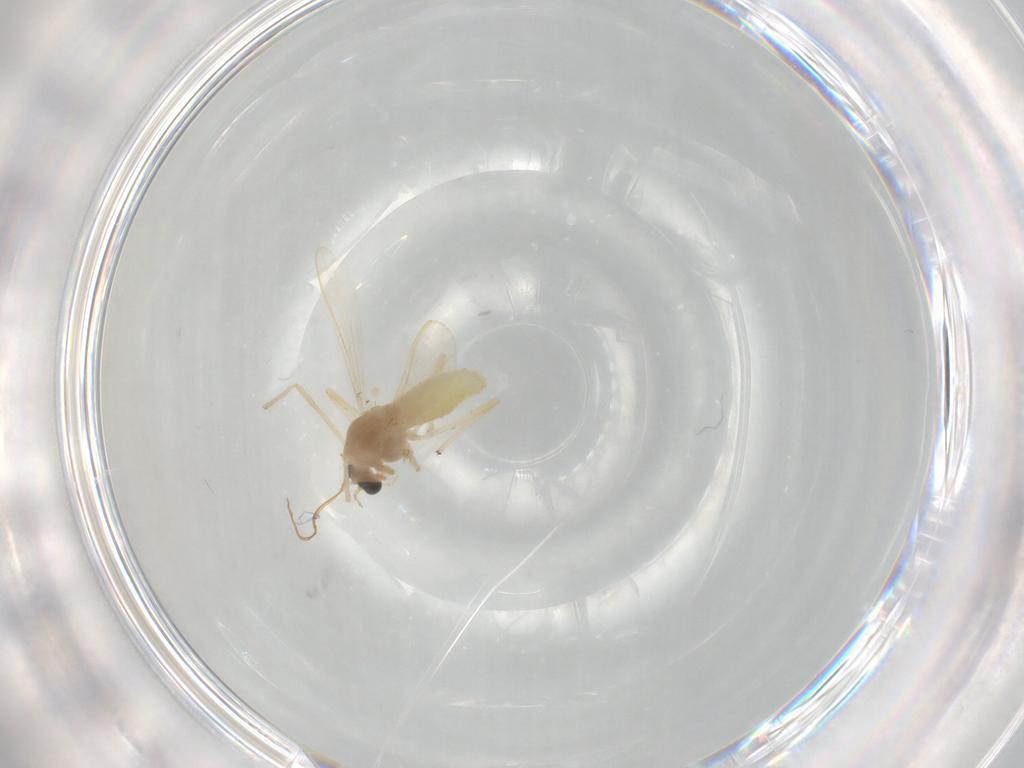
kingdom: Animalia
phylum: Arthropoda
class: Insecta
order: Diptera
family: Chironomidae
